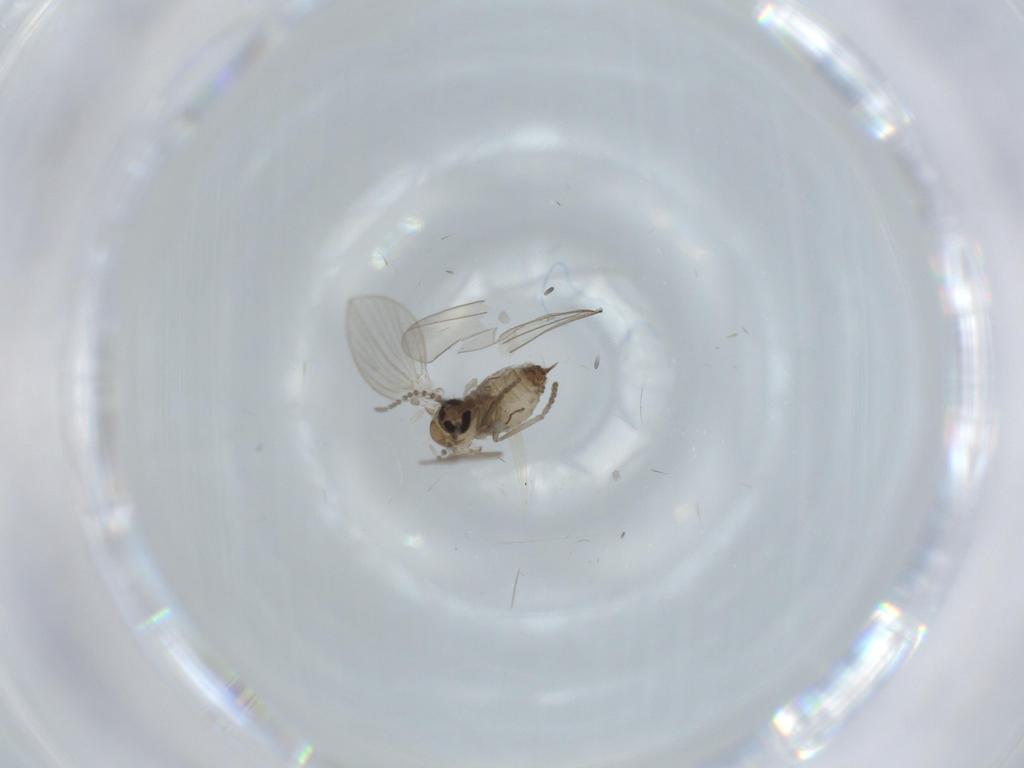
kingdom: Animalia
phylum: Arthropoda
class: Insecta
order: Diptera
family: Psychodidae
